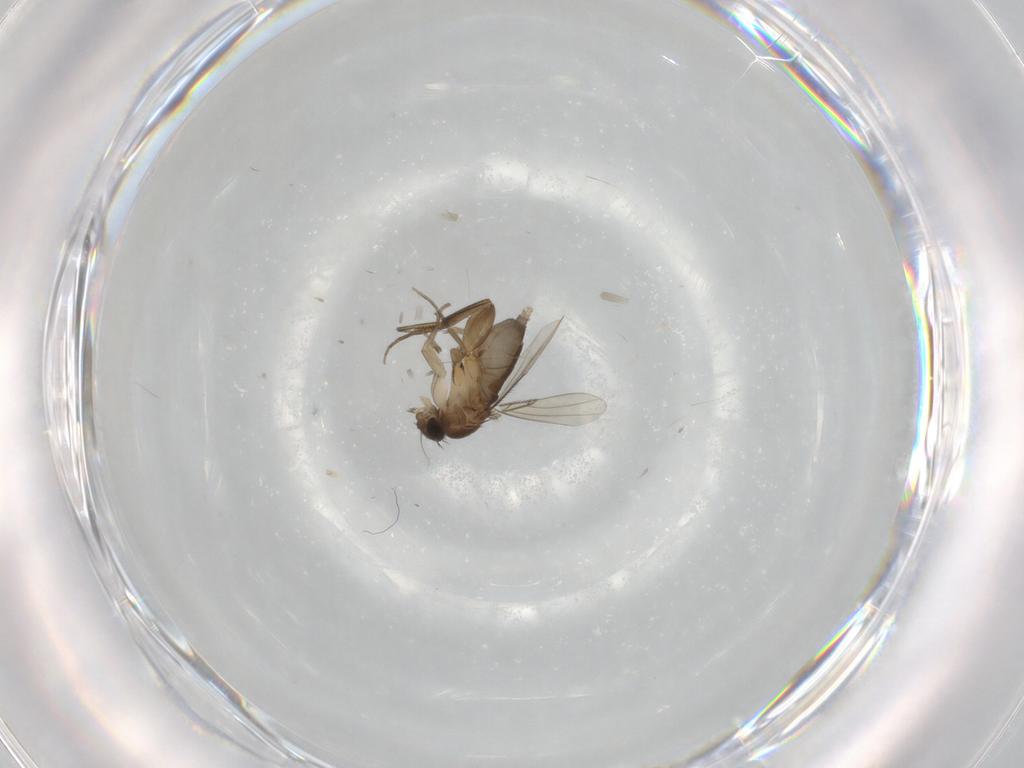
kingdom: Animalia
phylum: Arthropoda
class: Insecta
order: Diptera
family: Phoridae
